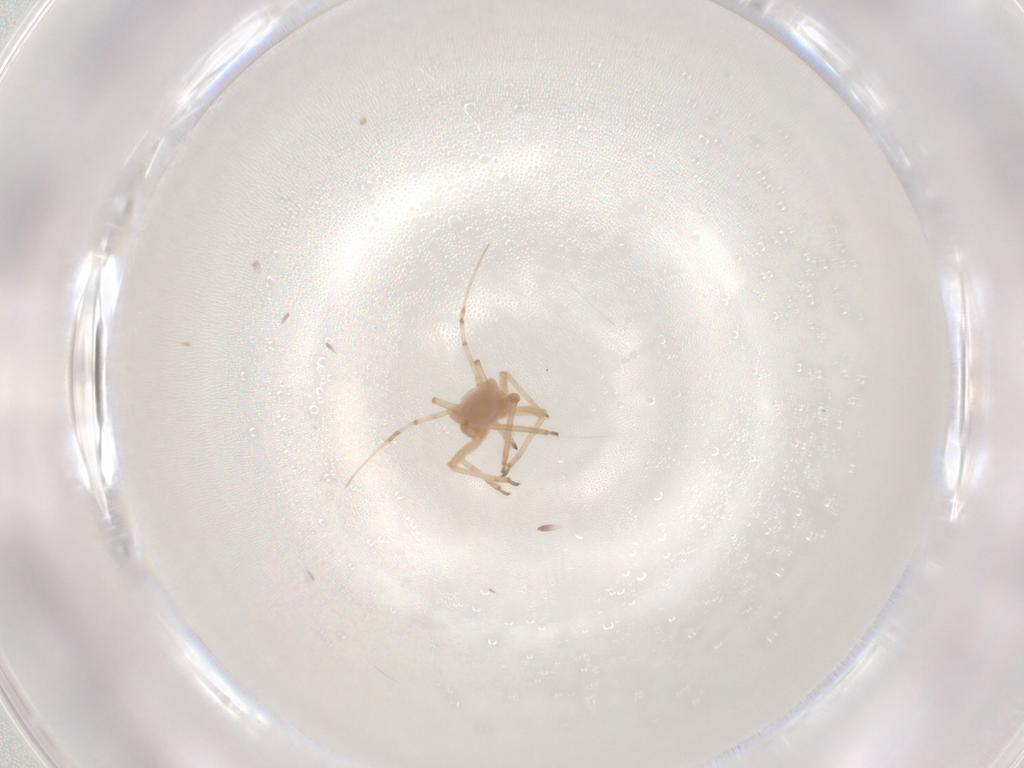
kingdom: Animalia
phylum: Arthropoda
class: Insecta
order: Hemiptera
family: Aphididae
